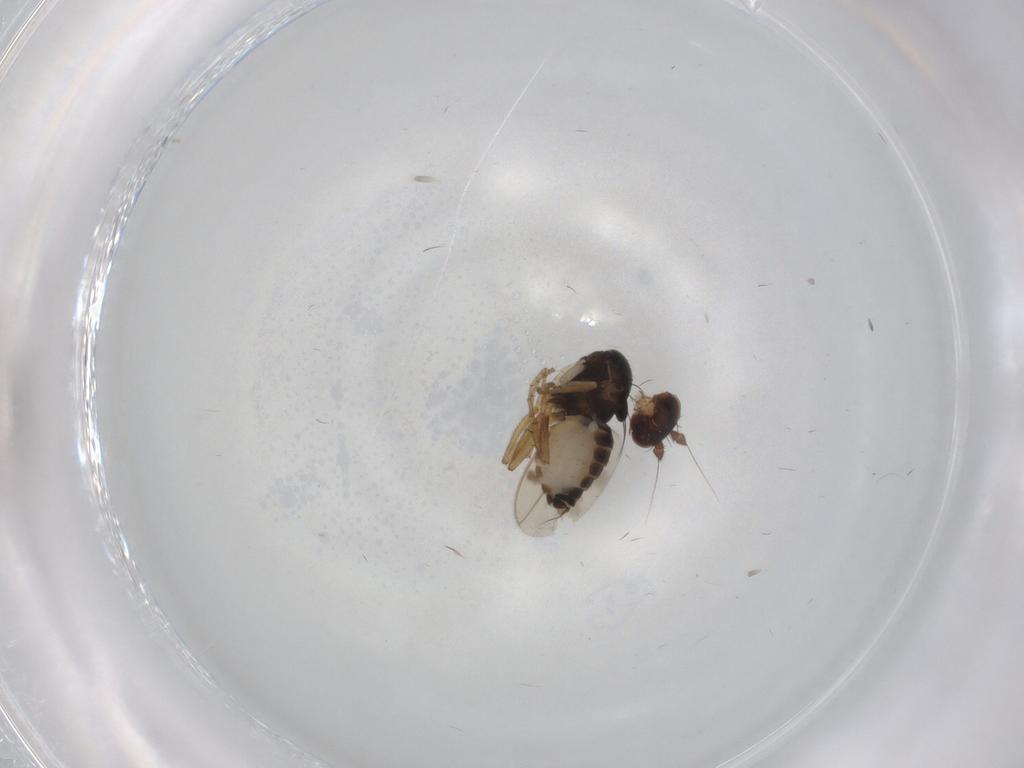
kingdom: Animalia
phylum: Arthropoda
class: Insecta
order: Diptera
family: Sphaeroceridae
